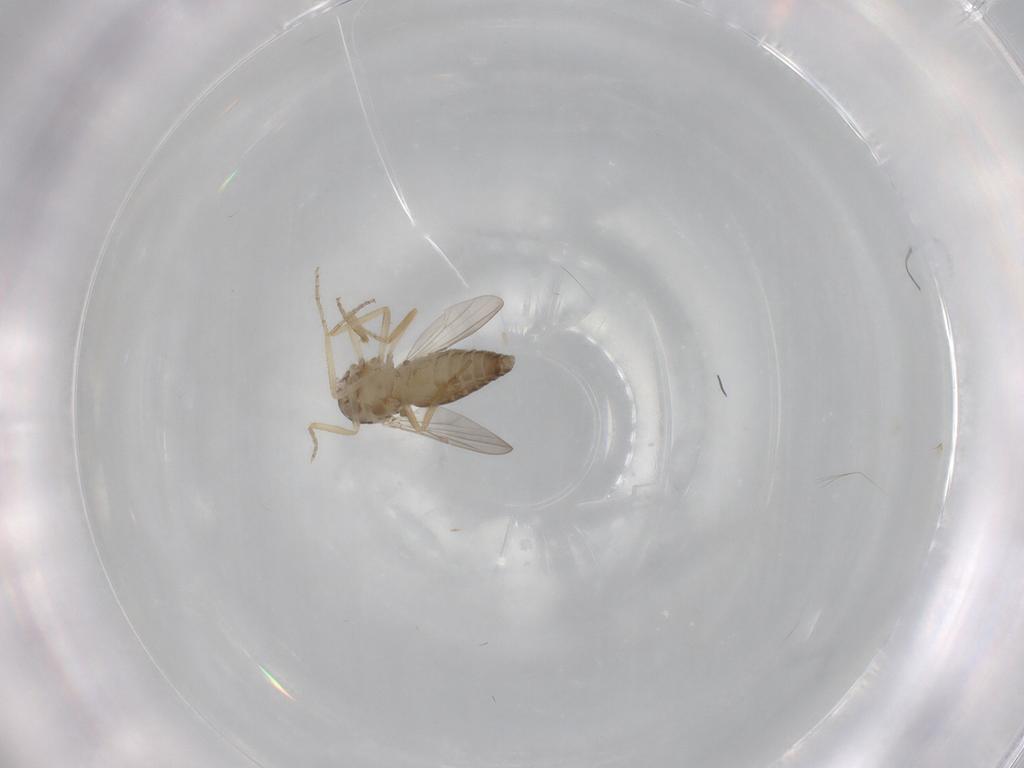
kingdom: Animalia
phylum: Arthropoda
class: Insecta
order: Diptera
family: Ceratopogonidae
